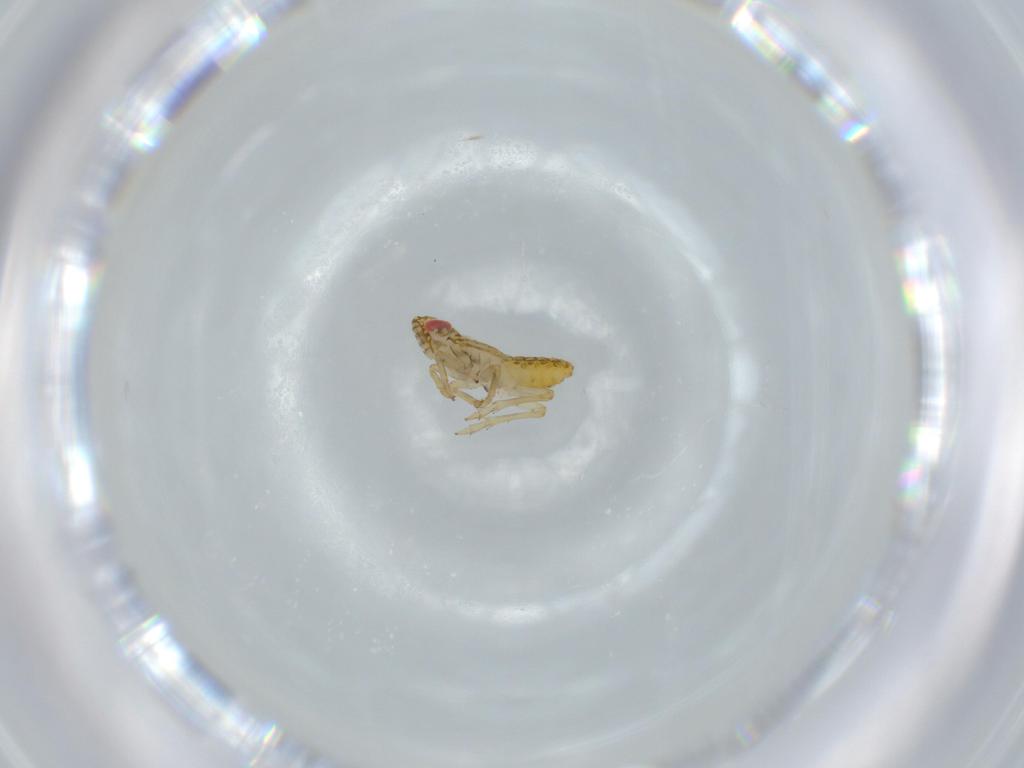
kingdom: Animalia
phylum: Arthropoda
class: Insecta
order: Hemiptera
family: Delphacidae
